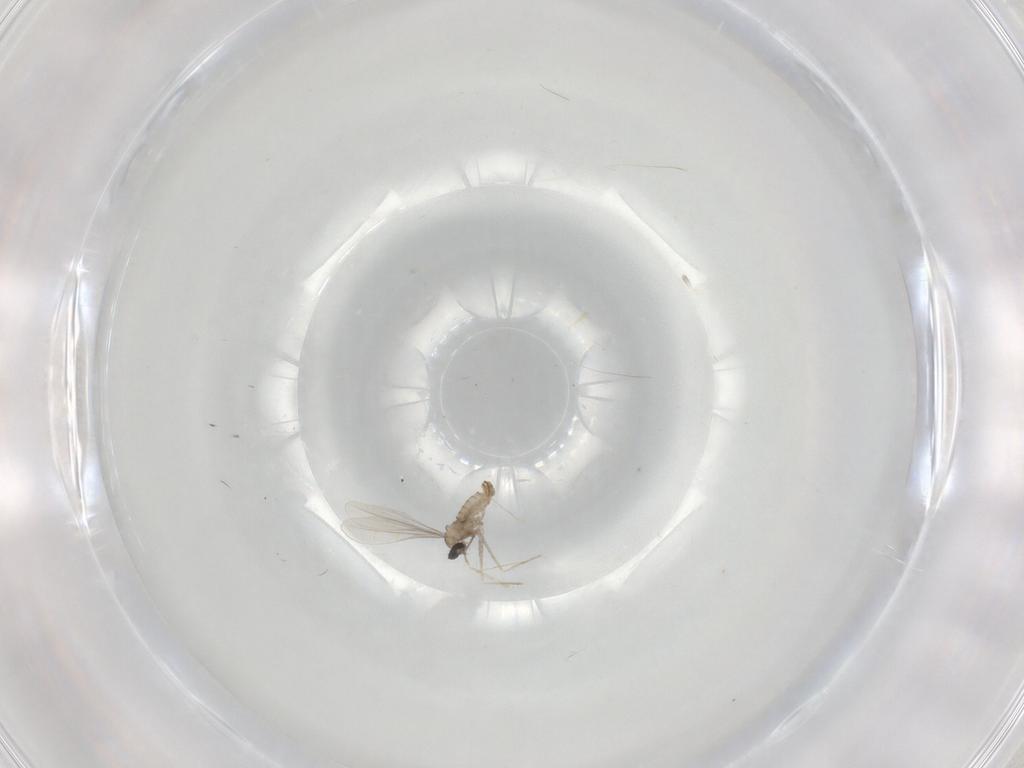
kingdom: Animalia
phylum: Arthropoda
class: Insecta
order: Diptera
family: Cecidomyiidae
